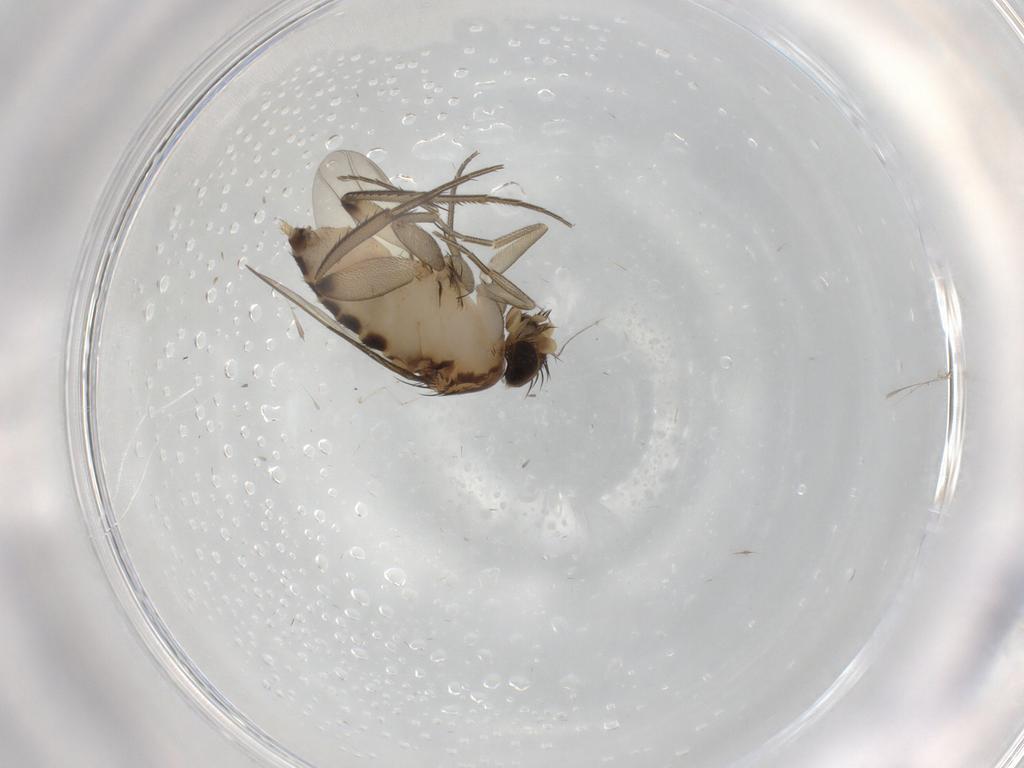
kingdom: Animalia
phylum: Arthropoda
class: Insecta
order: Diptera
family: Phoridae
